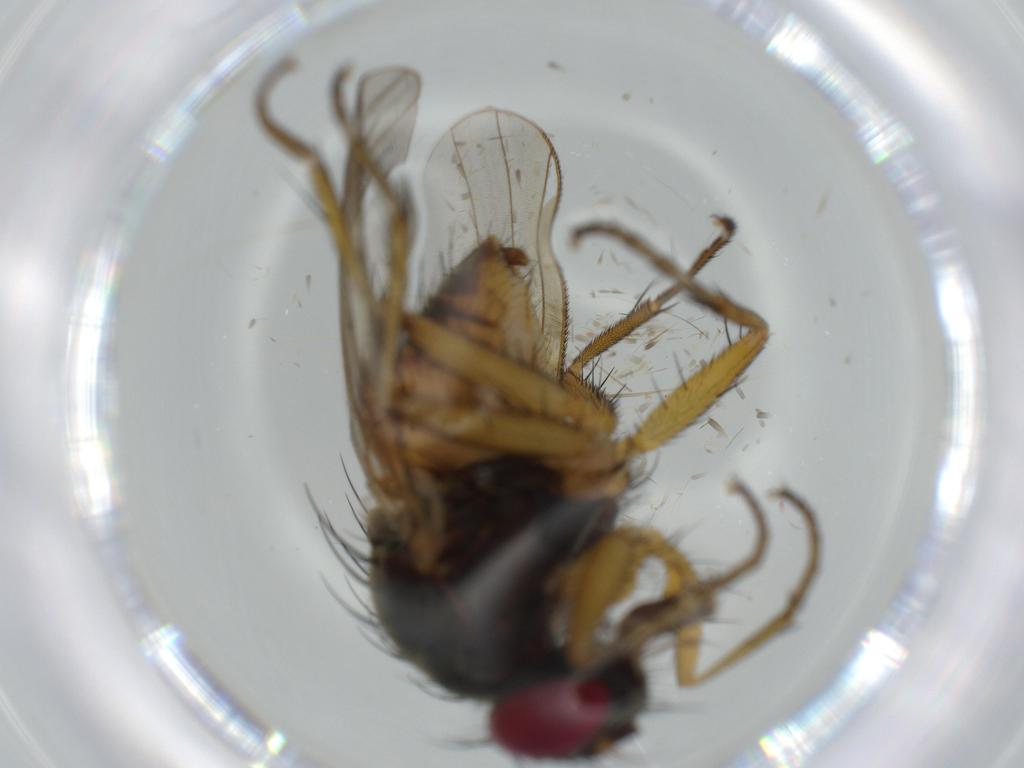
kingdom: Animalia
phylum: Arthropoda
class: Insecta
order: Diptera
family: Muscidae
